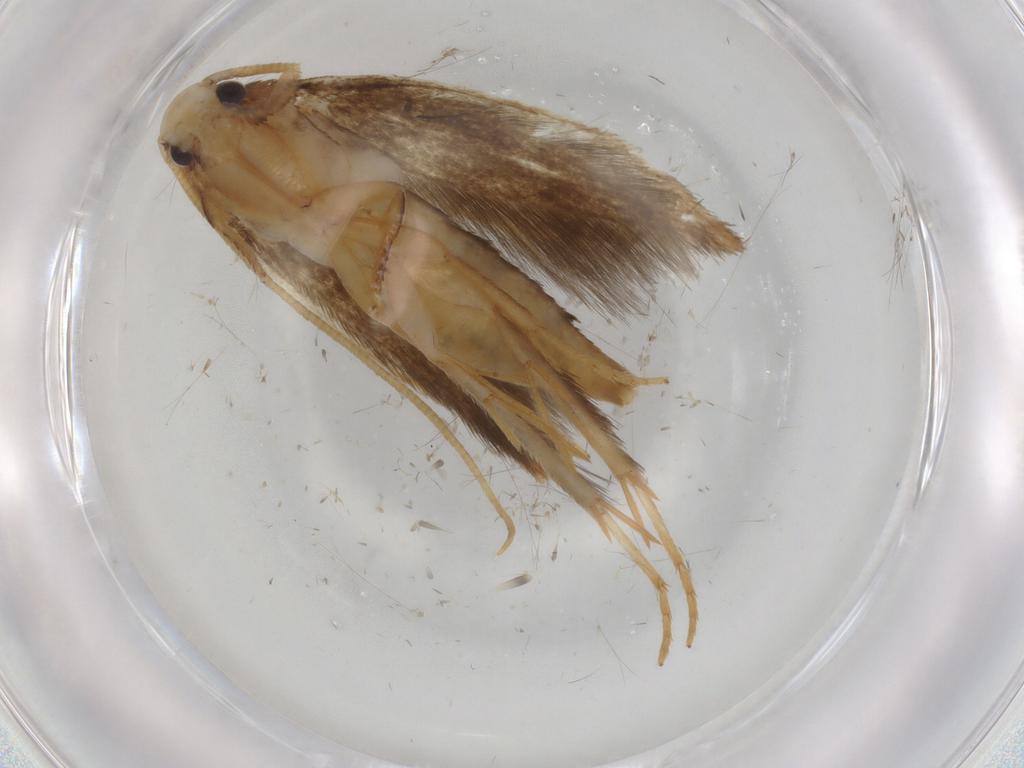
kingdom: Animalia
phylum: Arthropoda
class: Insecta
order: Lepidoptera
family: Tineidae
